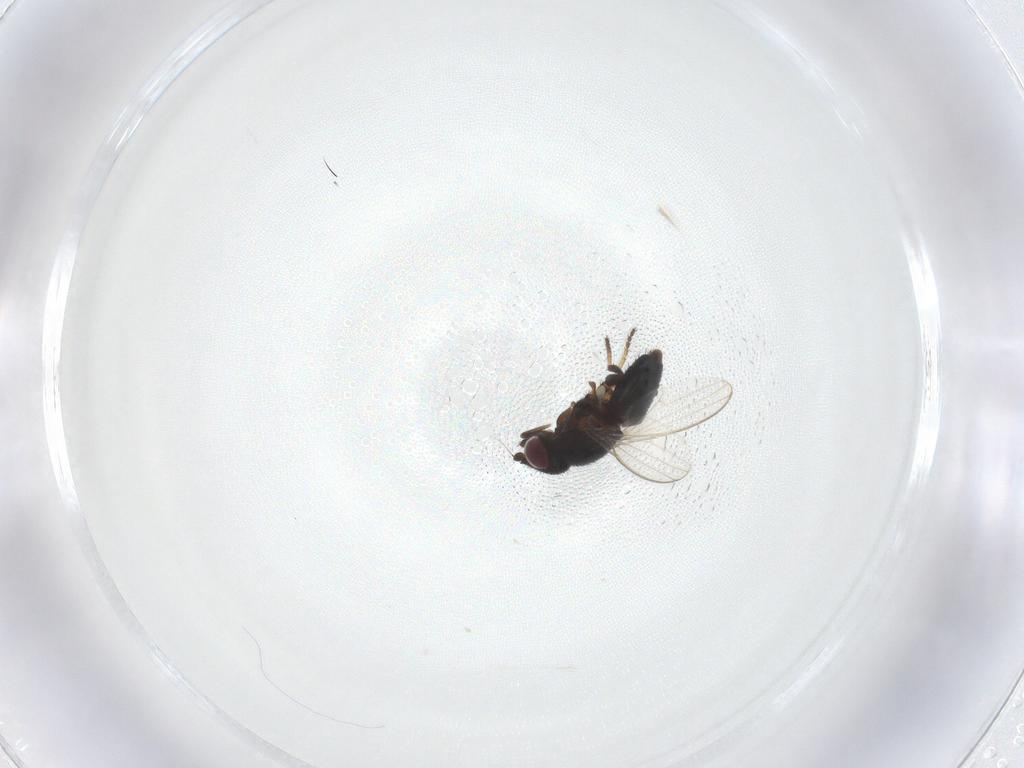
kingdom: Animalia
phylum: Arthropoda
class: Insecta
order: Diptera
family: Milichiidae
